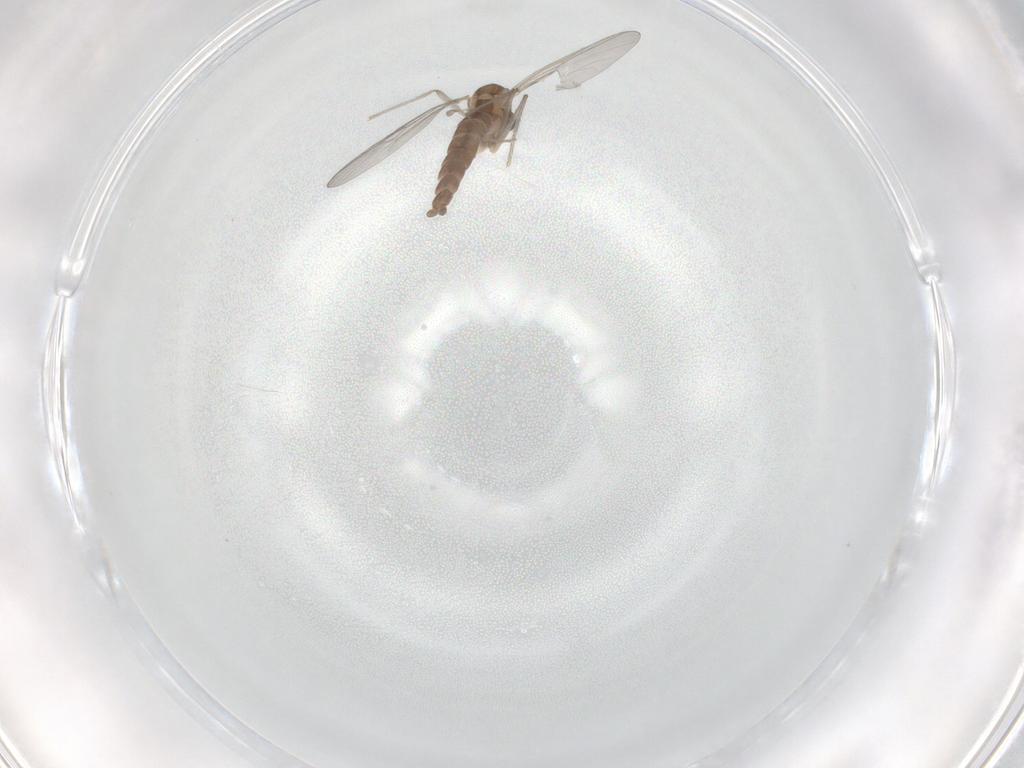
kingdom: Animalia
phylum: Arthropoda
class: Insecta
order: Diptera
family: Chironomidae
